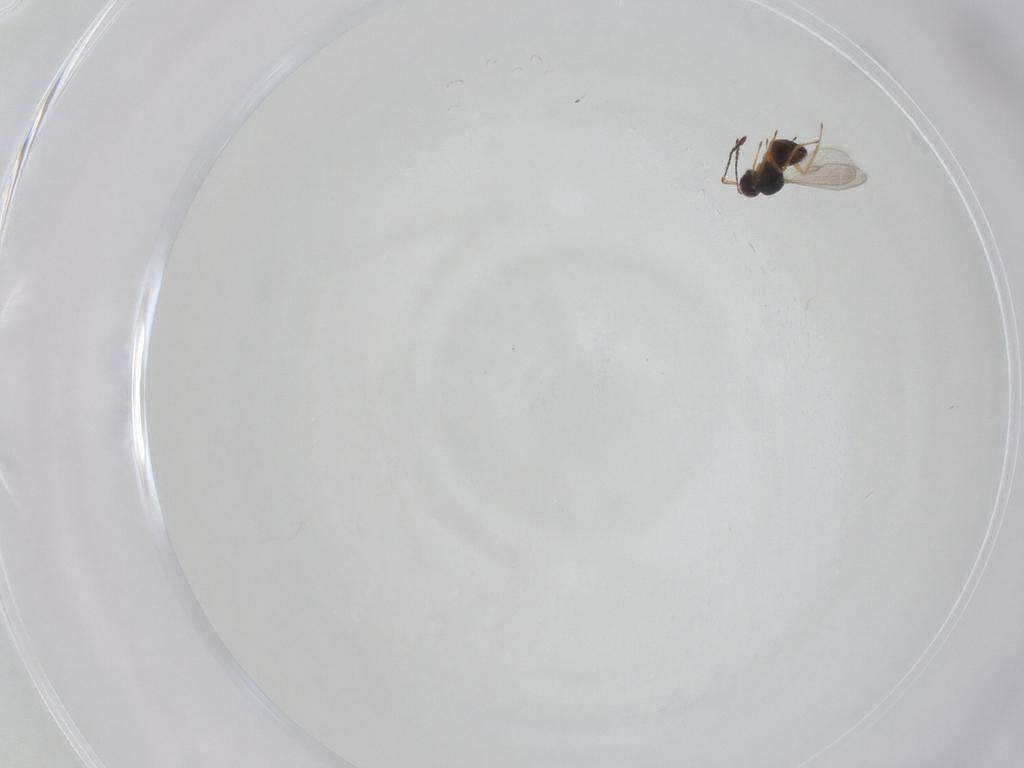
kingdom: Animalia
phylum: Arthropoda
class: Insecta
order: Hymenoptera
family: Mymaridae
